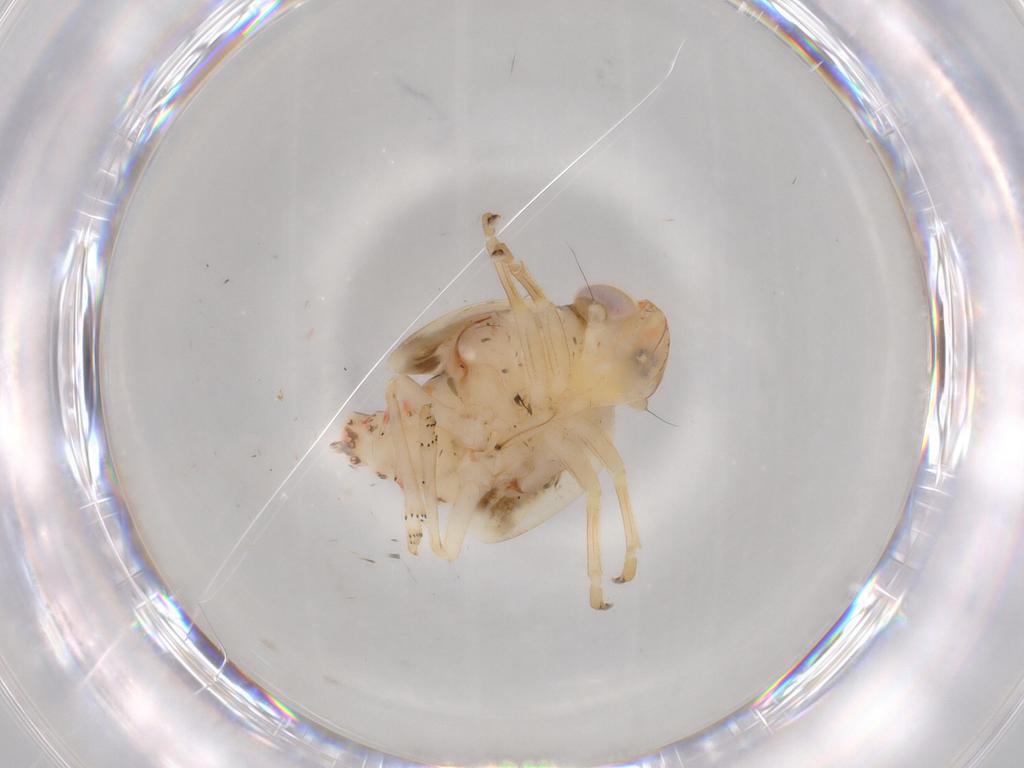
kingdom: Animalia
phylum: Arthropoda
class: Insecta
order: Hemiptera
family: Nogodinidae
